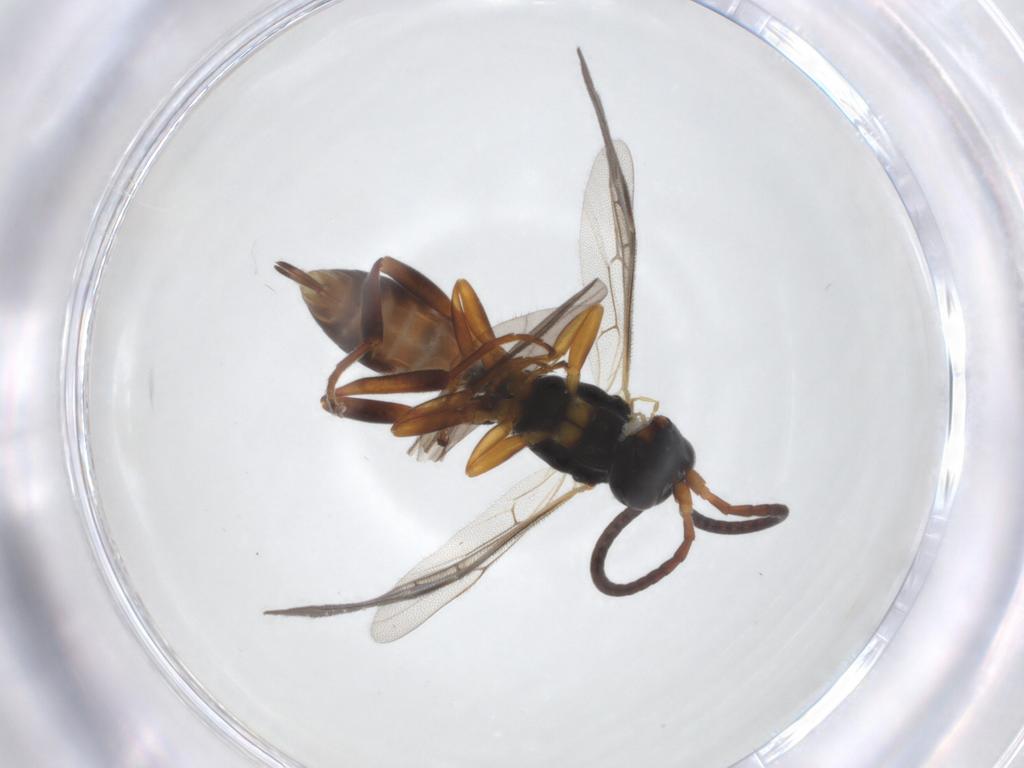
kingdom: Animalia
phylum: Arthropoda
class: Insecta
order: Hymenoptera
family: Ichneumonidae
